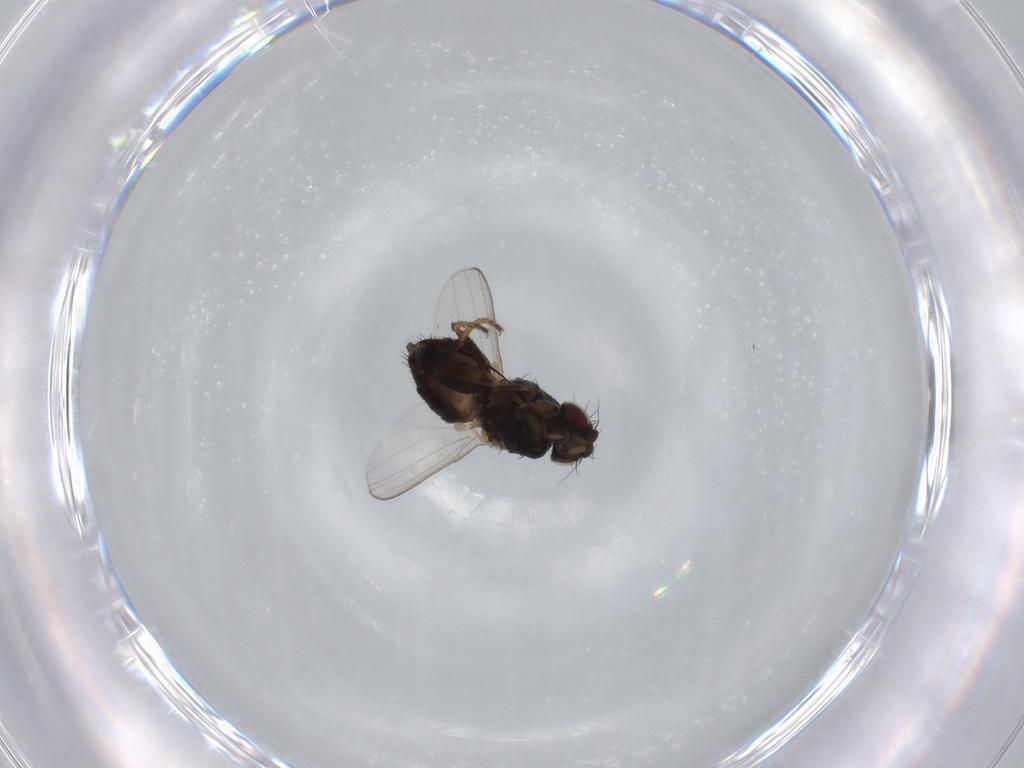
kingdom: Animalia
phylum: Arthropoda
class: Insecta
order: Diptera
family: Milichiidae
